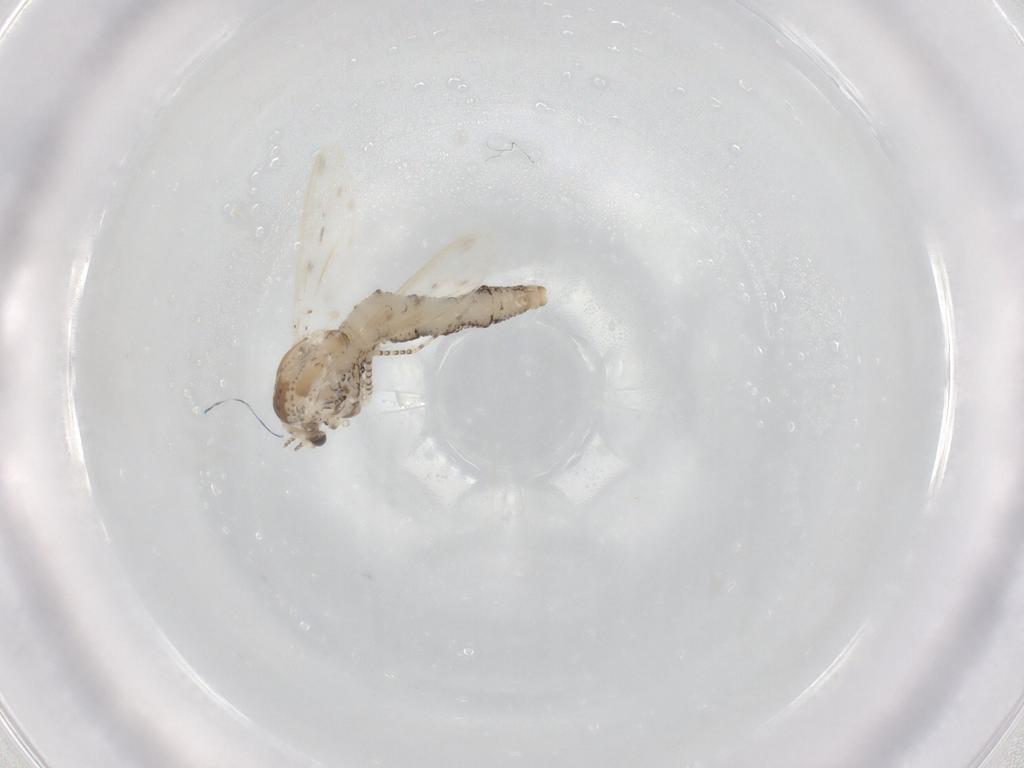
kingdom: Animalia
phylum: Arthropoda
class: Insecta
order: Diptera
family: Chaoboridae
